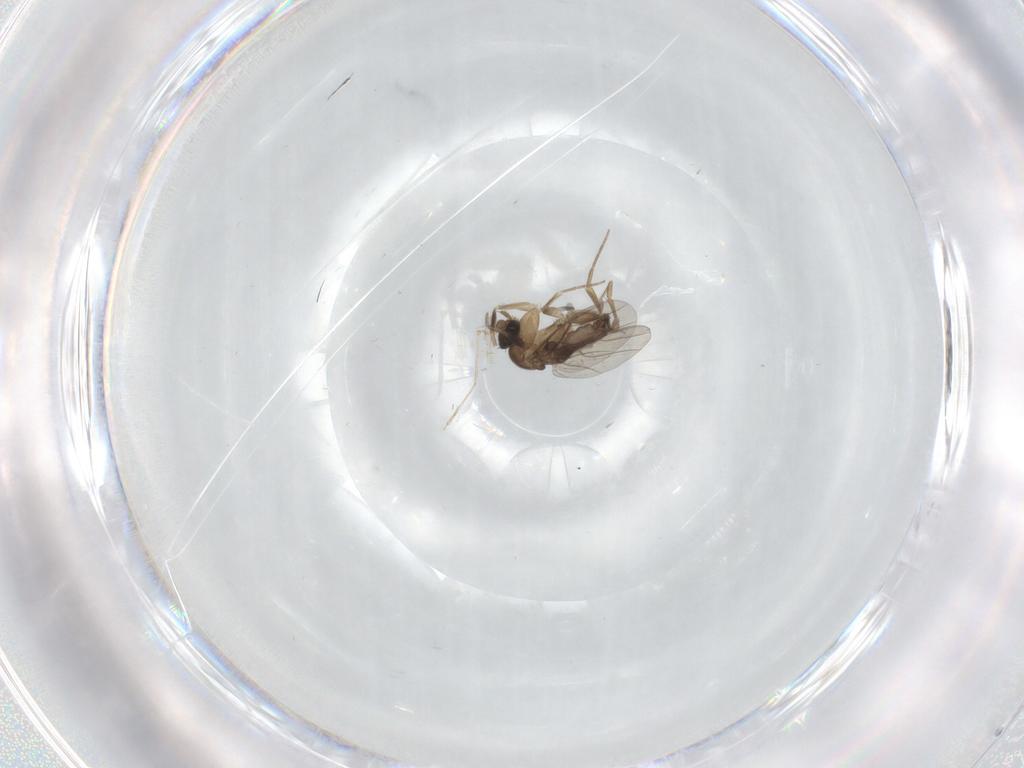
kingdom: Animalia
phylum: Arthropoda
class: Insecta
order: Diptera
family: Phoridae
